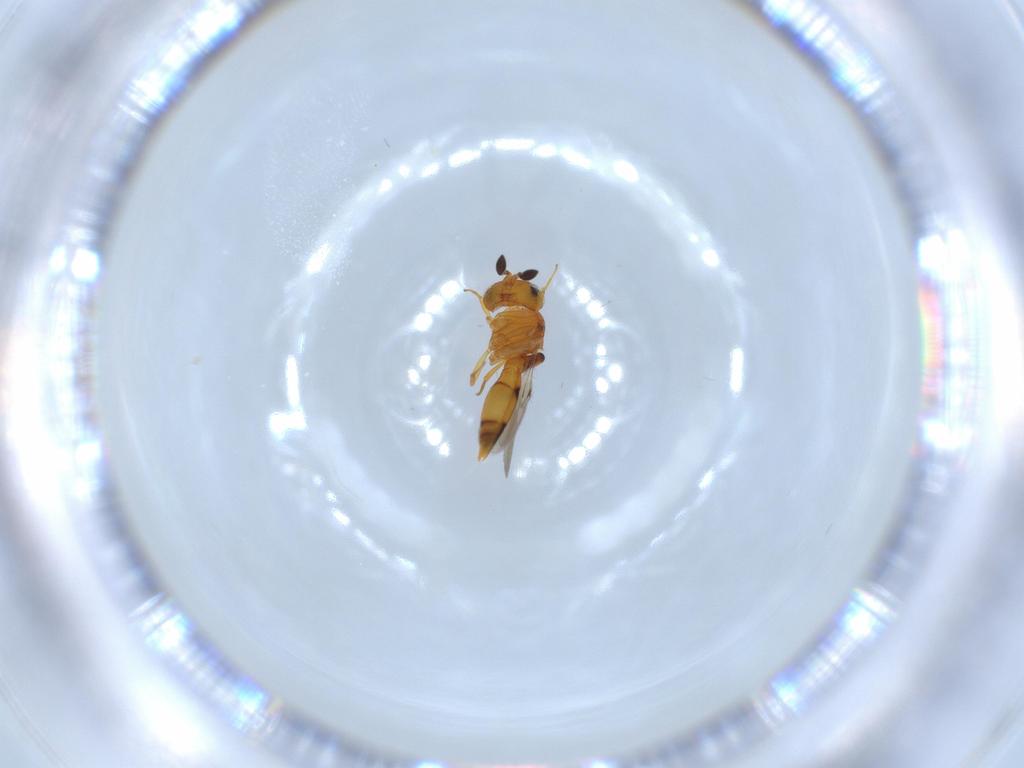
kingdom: Animalia
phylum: Arthropoda
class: Insecta
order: Hymenoptera
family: Scelionidae
